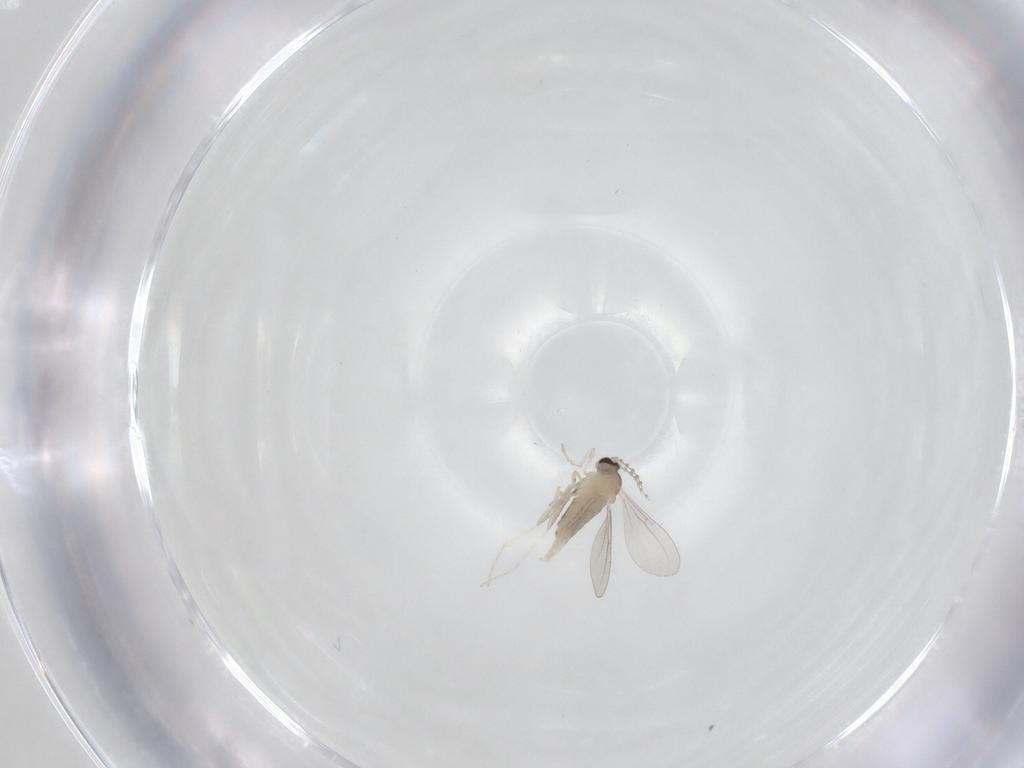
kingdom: Animalia
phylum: Arthropoda
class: Insecta
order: Diptera
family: Cecidomyiidae
